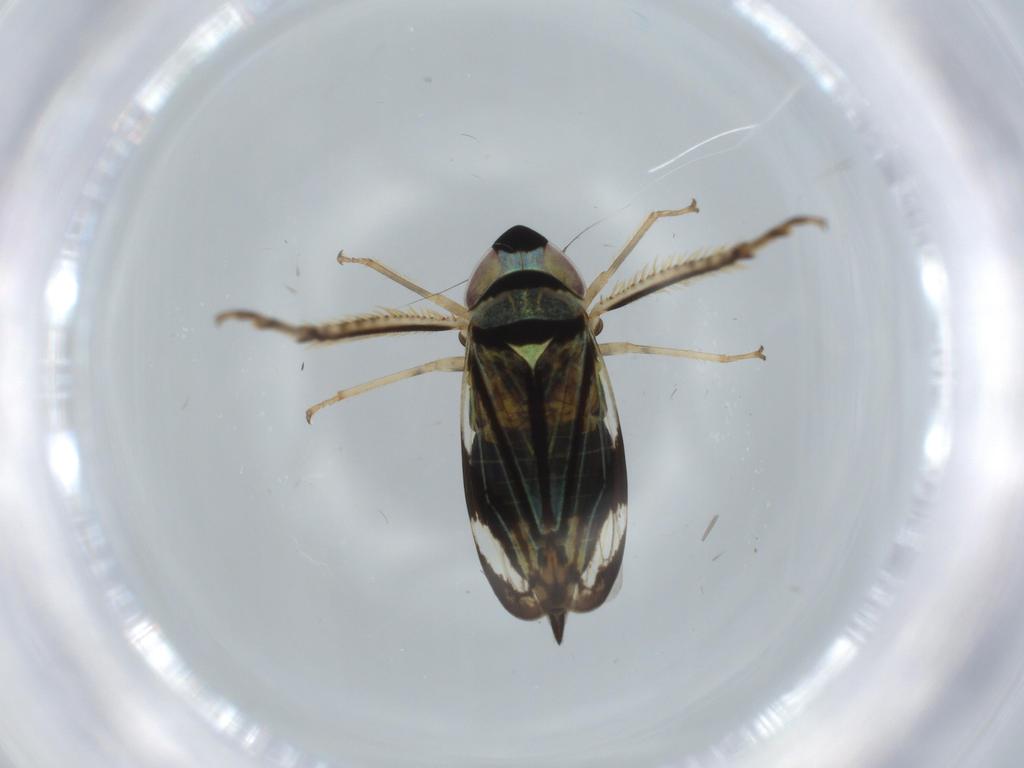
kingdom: Animalia
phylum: Arthropoda
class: Insecta
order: Hemiptera
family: Cicadellidae
